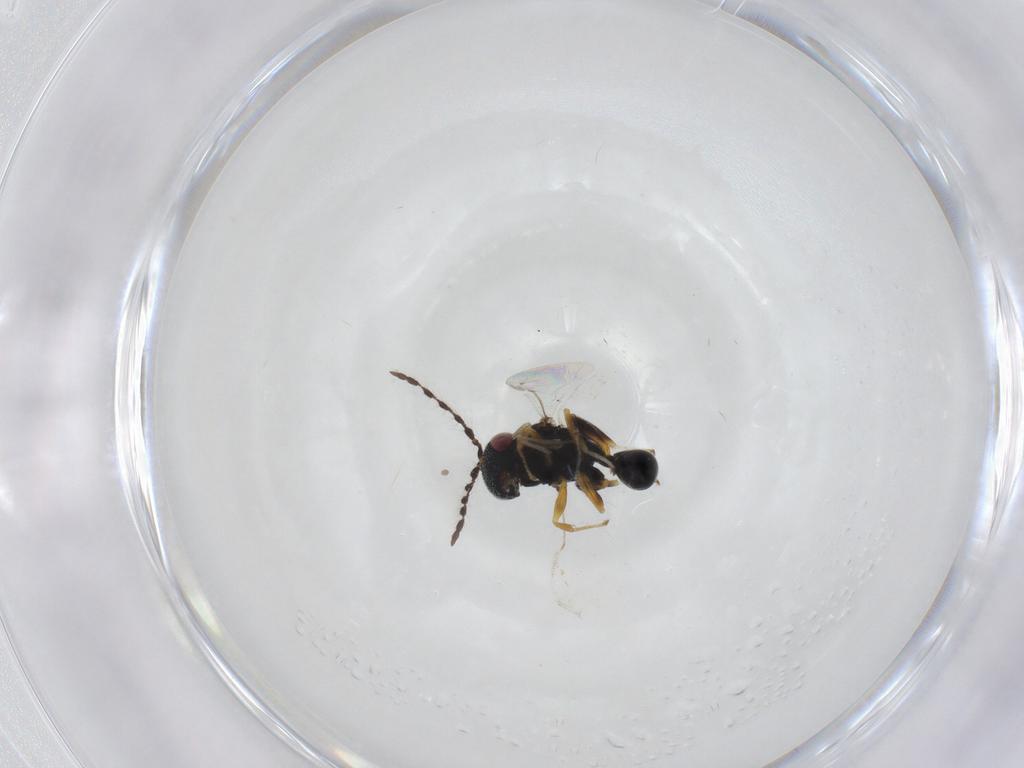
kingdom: Animalia
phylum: Arthropoda
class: Insecta
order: Hymenoptera
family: Eurytomidae
